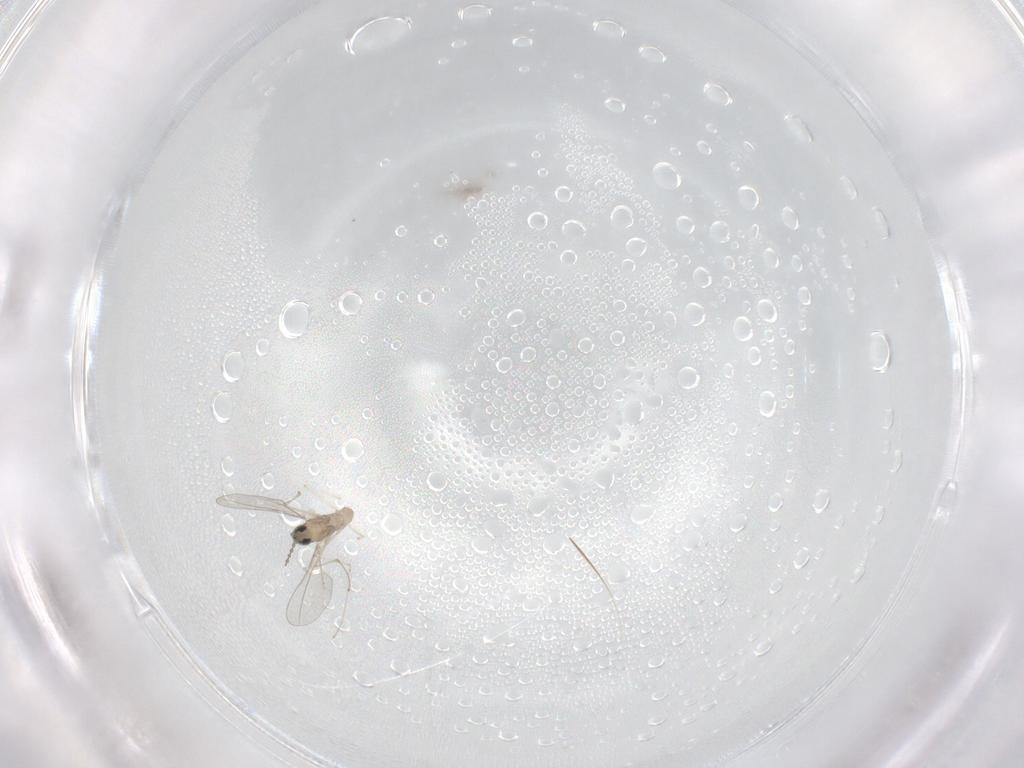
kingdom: Animalia
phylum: Arthropoda
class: Insecta
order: Diptera
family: Cecidomyiidae
